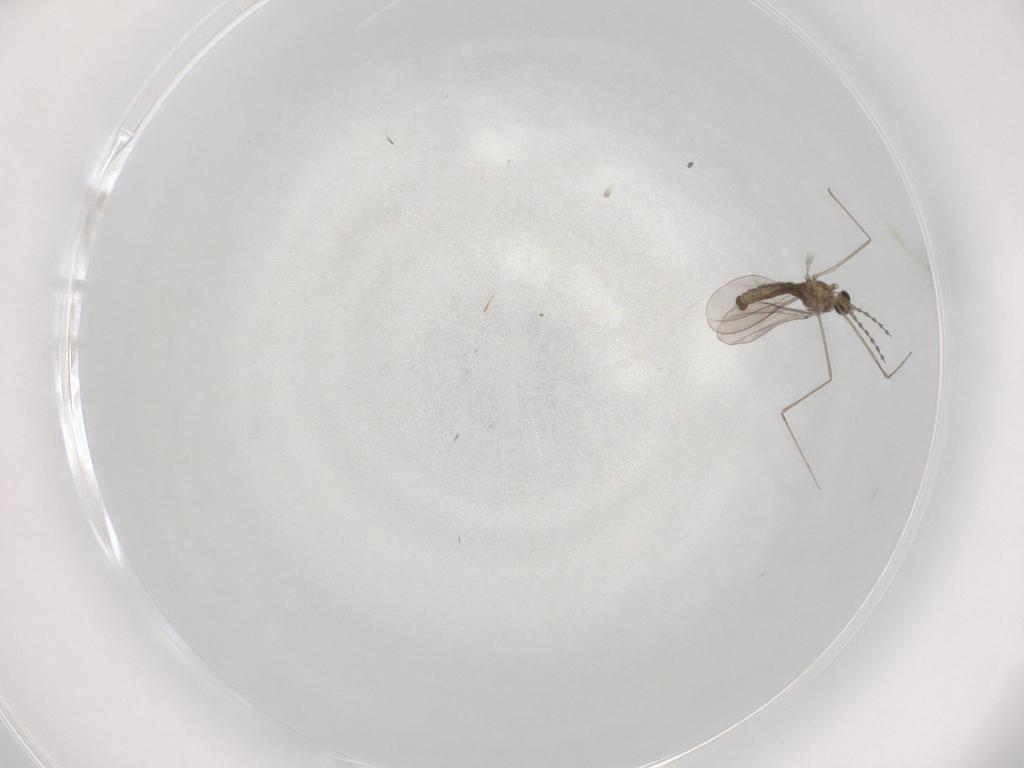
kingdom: Animalia
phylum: Arthropoda
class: Insecta
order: Diptera
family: Cecidomyiidae
